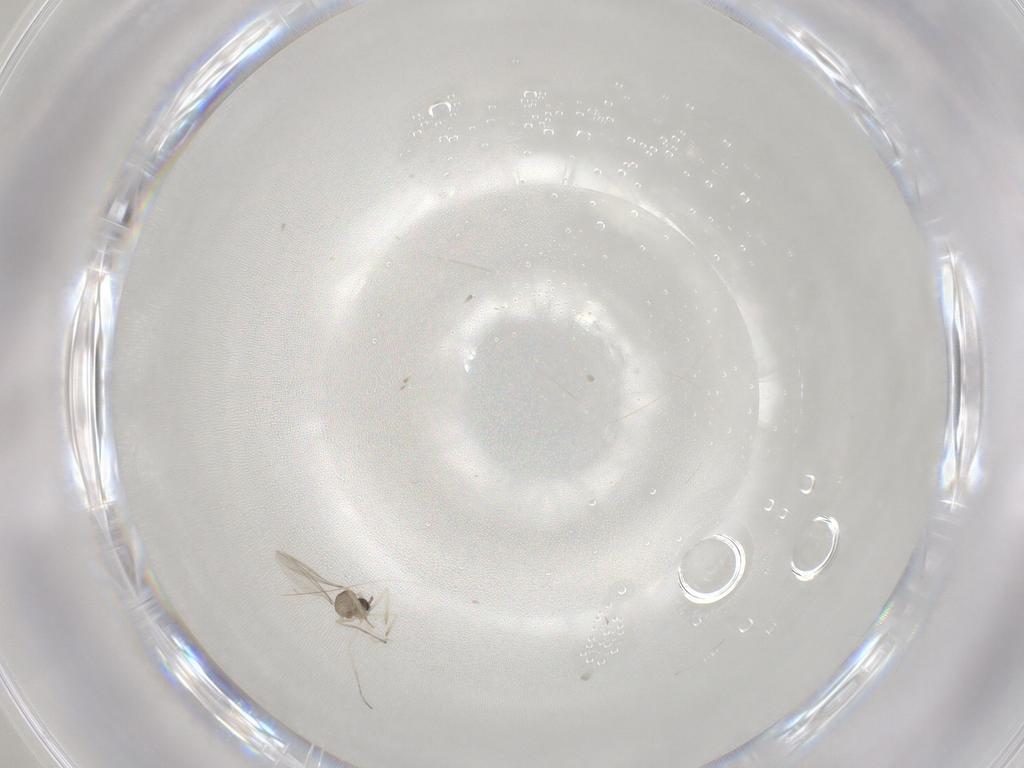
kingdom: Animalia
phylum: Arthropoda
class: Insecta
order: Diptera
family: Cecidomyiidae
